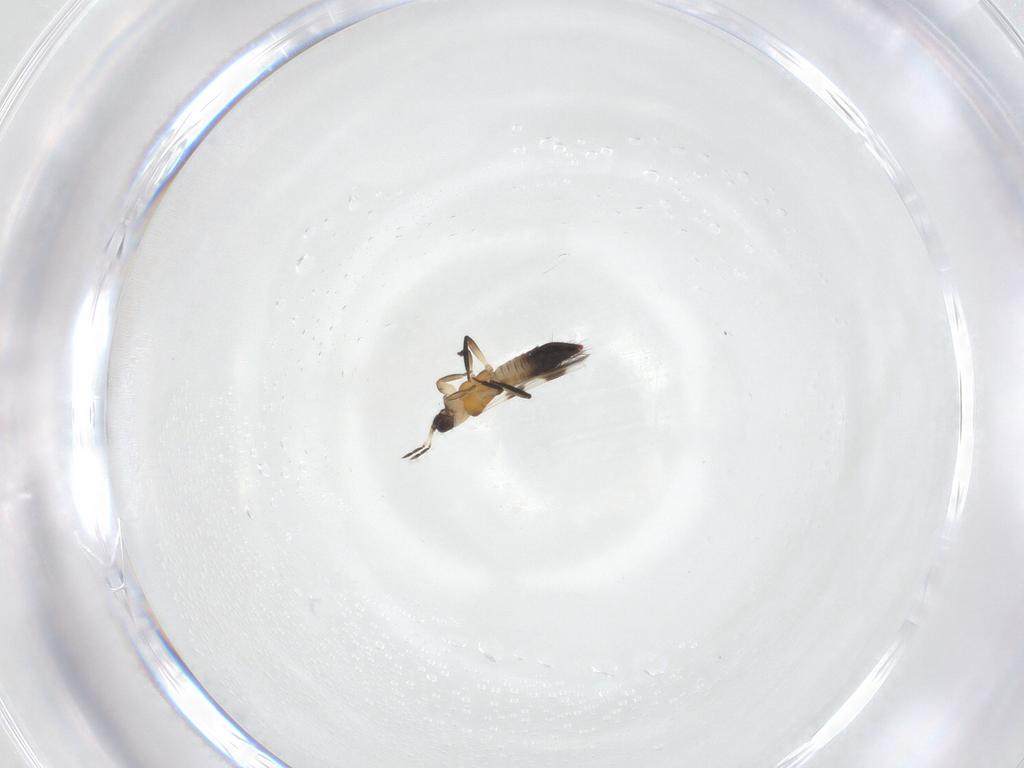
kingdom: Animalia
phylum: Arthropoda
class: Insecta
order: Thysanoptera
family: Aeolothripidae
